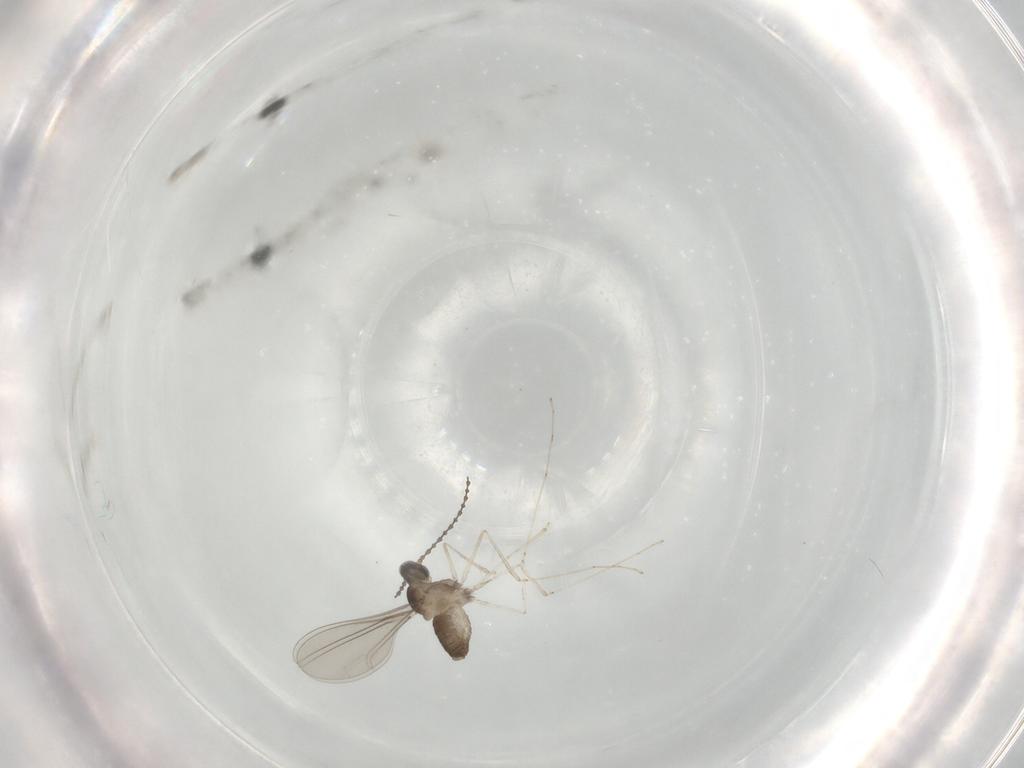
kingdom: Animalia
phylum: Arthropoda
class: Insecta
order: Diptera
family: Cecidomyiidae
